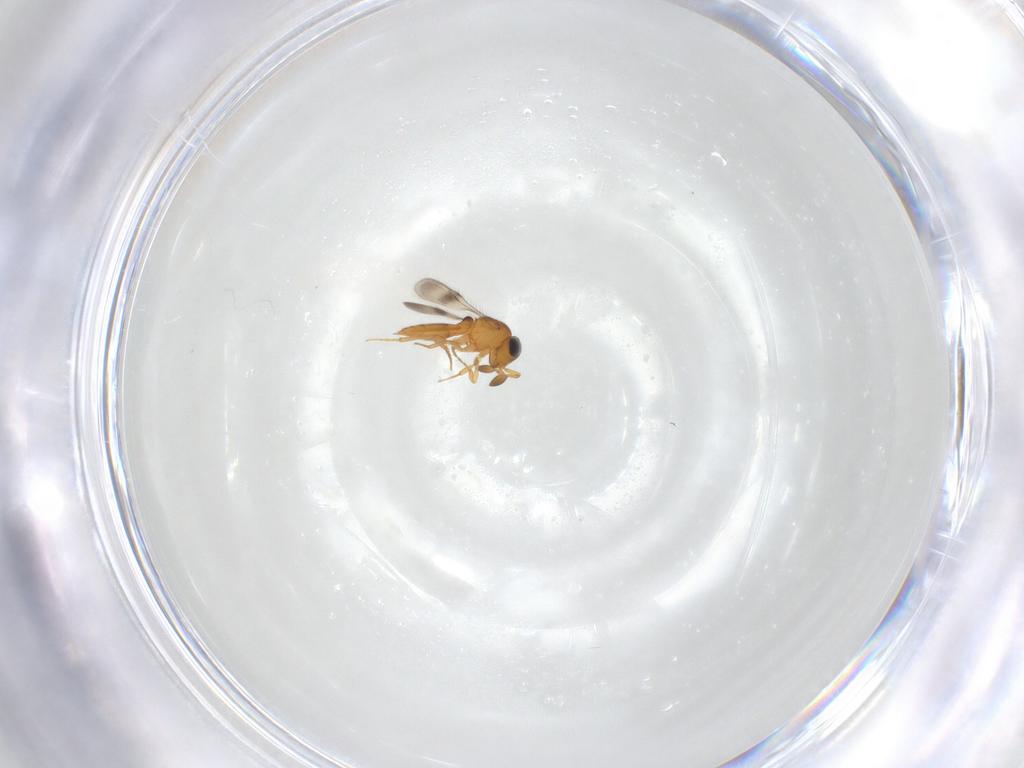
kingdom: Animalia
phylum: Arthropoda
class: Insecta
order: Hymenoptera
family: Scelionidae
